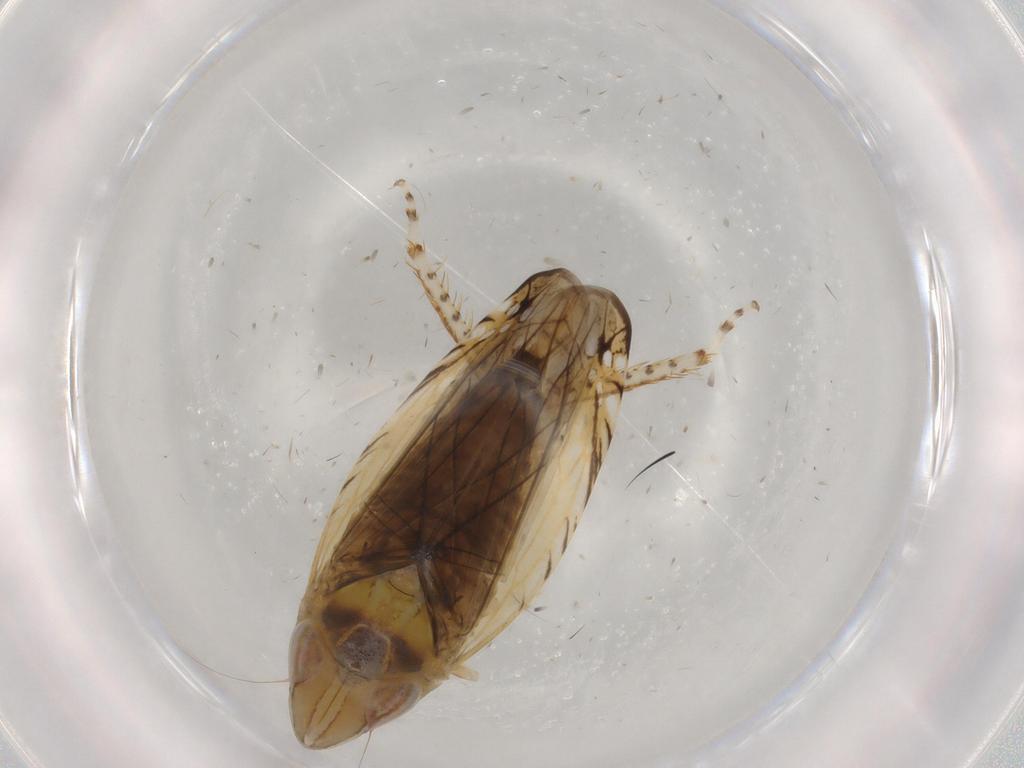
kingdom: Animalia
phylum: Arthropoda
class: Insecta
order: Hemiptera
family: Cicadellidae
